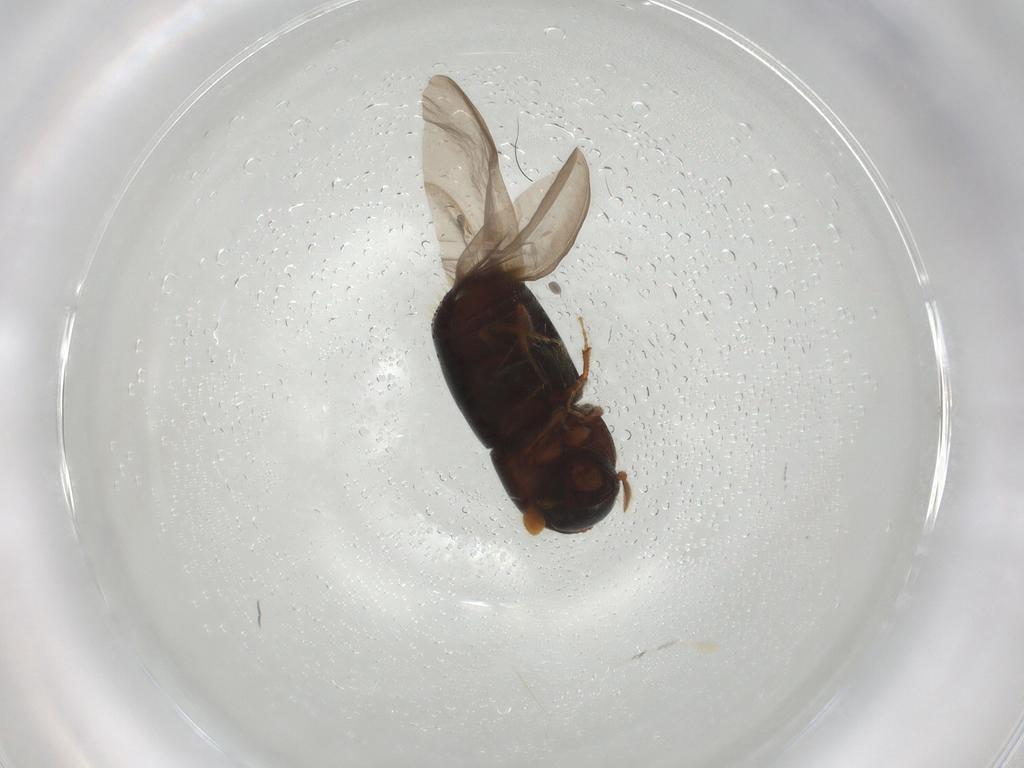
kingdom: Animalia
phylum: Arthropoda
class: Insecta
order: Coleoptera
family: Curculionidae
